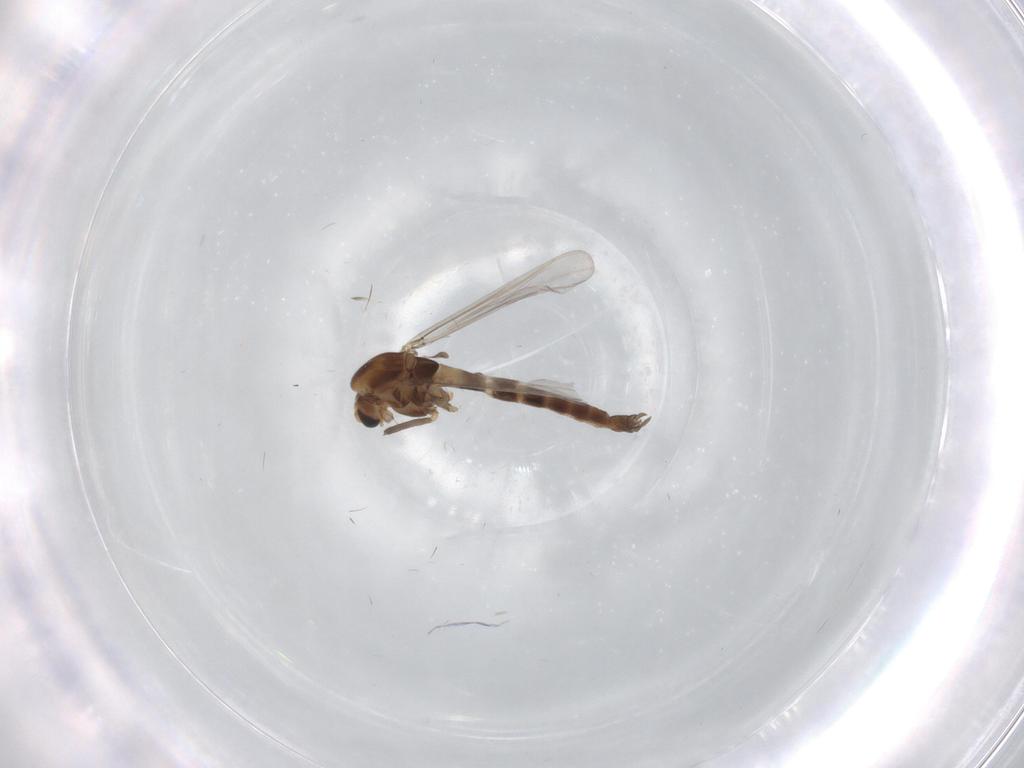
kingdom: Animalia
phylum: Arthropoda
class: Insecta
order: Diptera
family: Chironomidae
